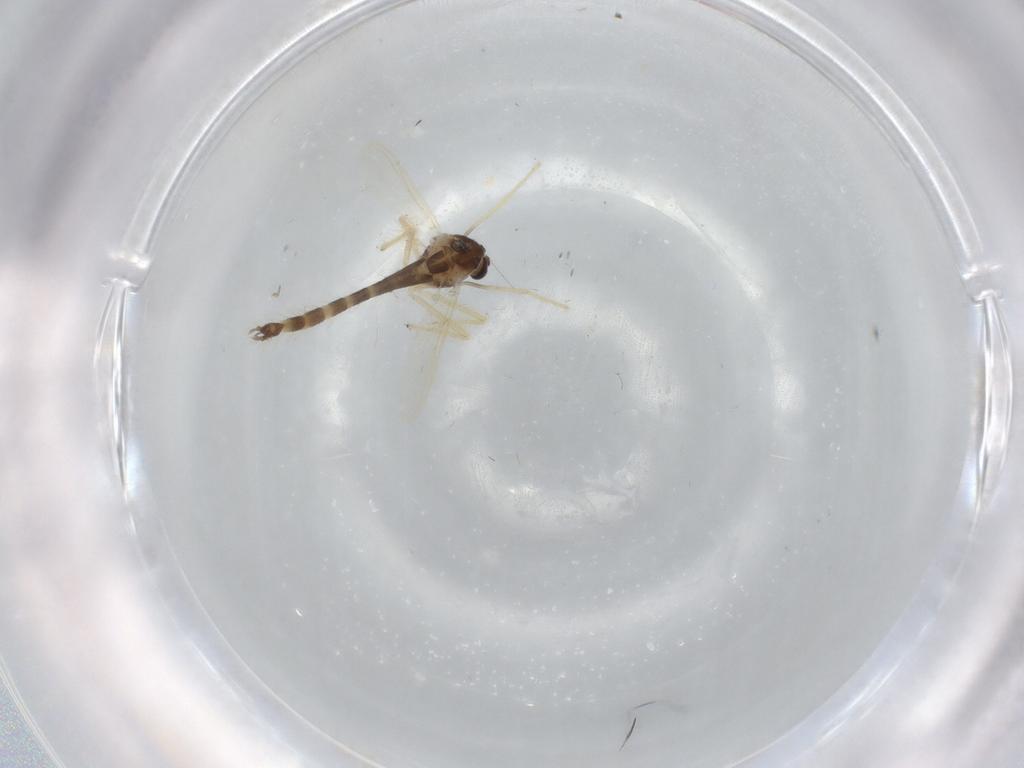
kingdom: Animalia
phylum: Arthropoda
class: Insecta
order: Diptera
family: Chironomidae
